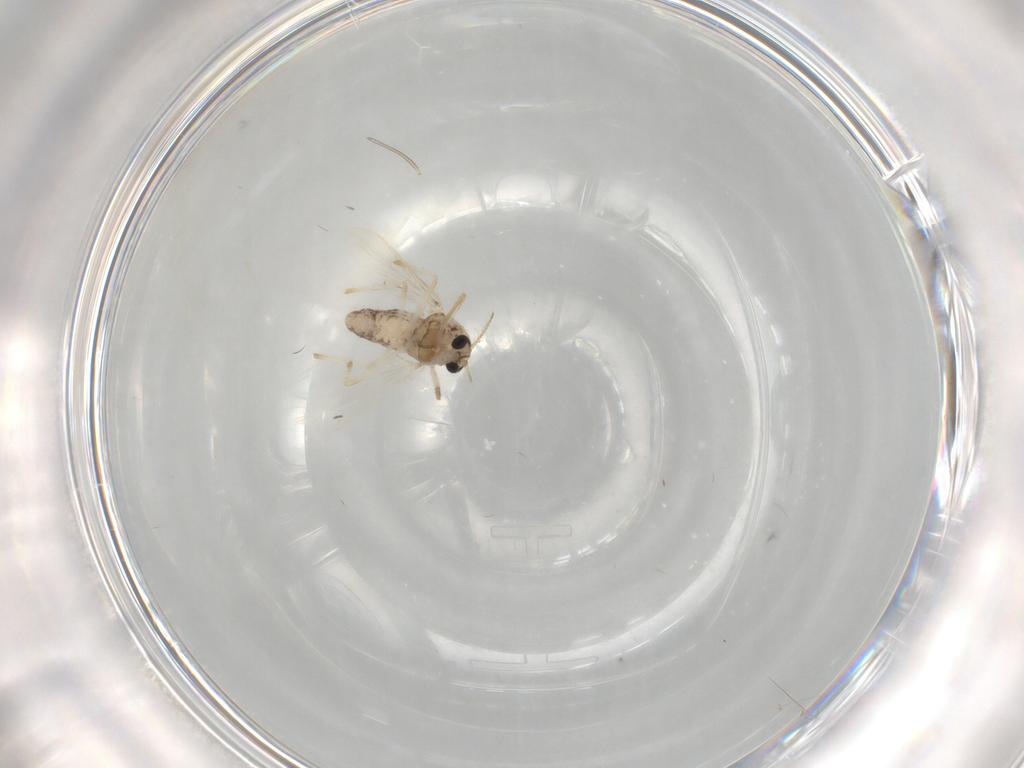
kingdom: Animalia
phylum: Arthropoda
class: Insecta
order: Diptera
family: Chironomidae
